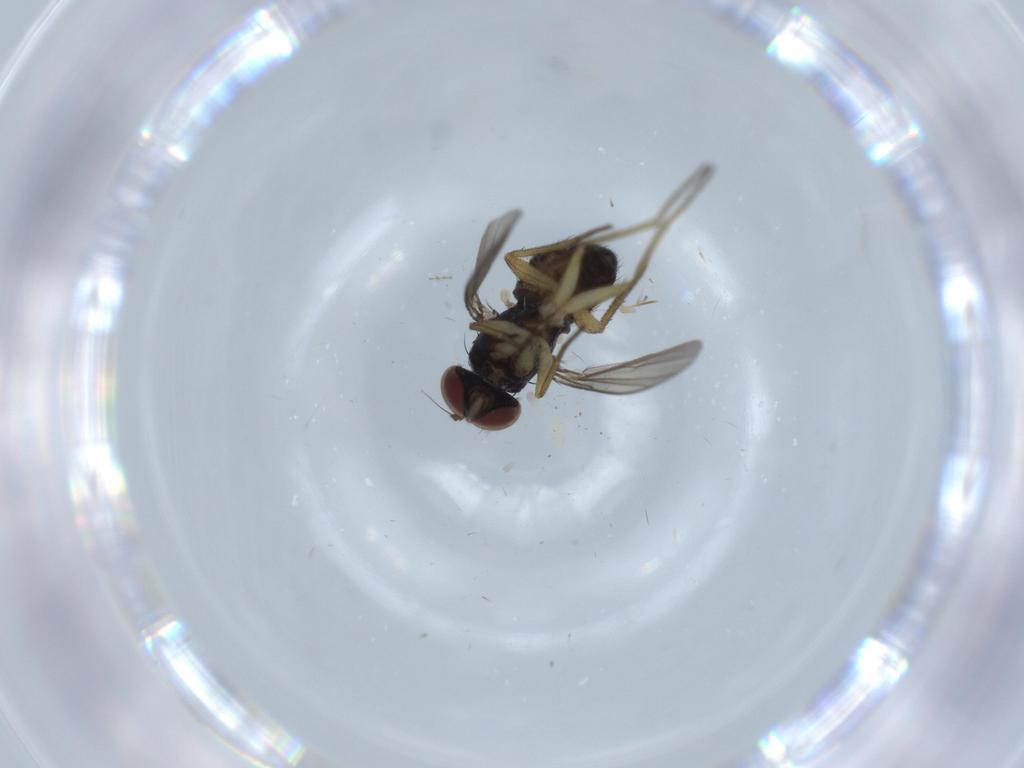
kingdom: Animalia
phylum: Arthropoda
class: Insecta
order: Diptera
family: Dolichopodidae
